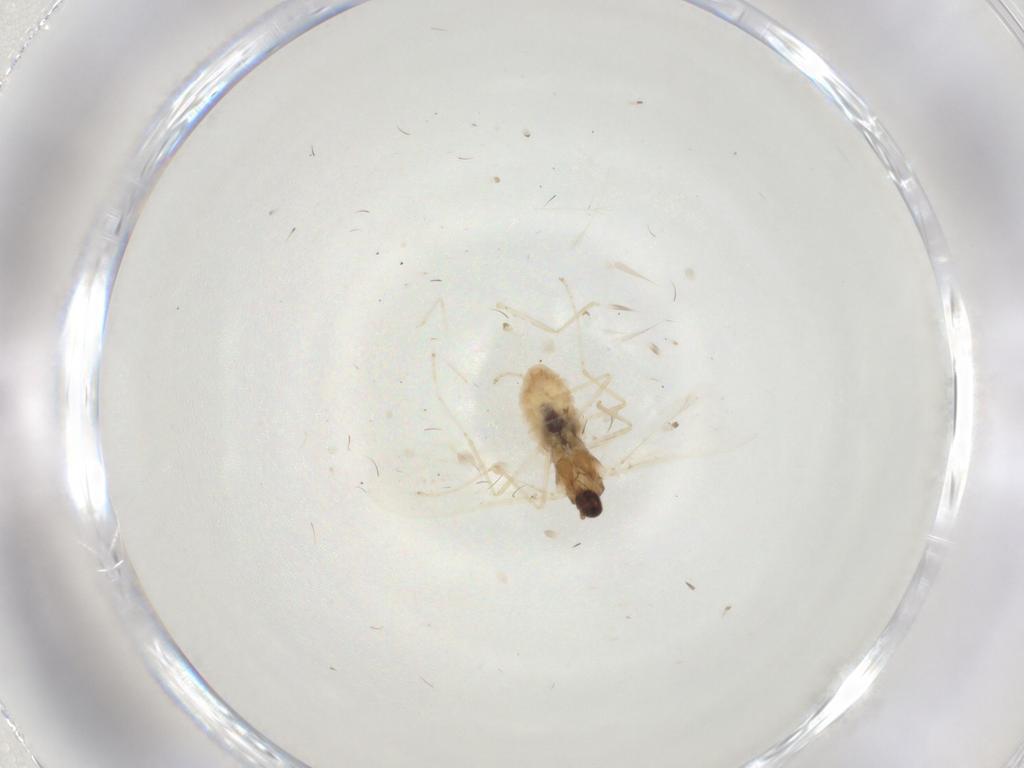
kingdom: Animalia
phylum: Arthropoda
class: Insecta
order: Diptera
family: Cecidomyiidae
